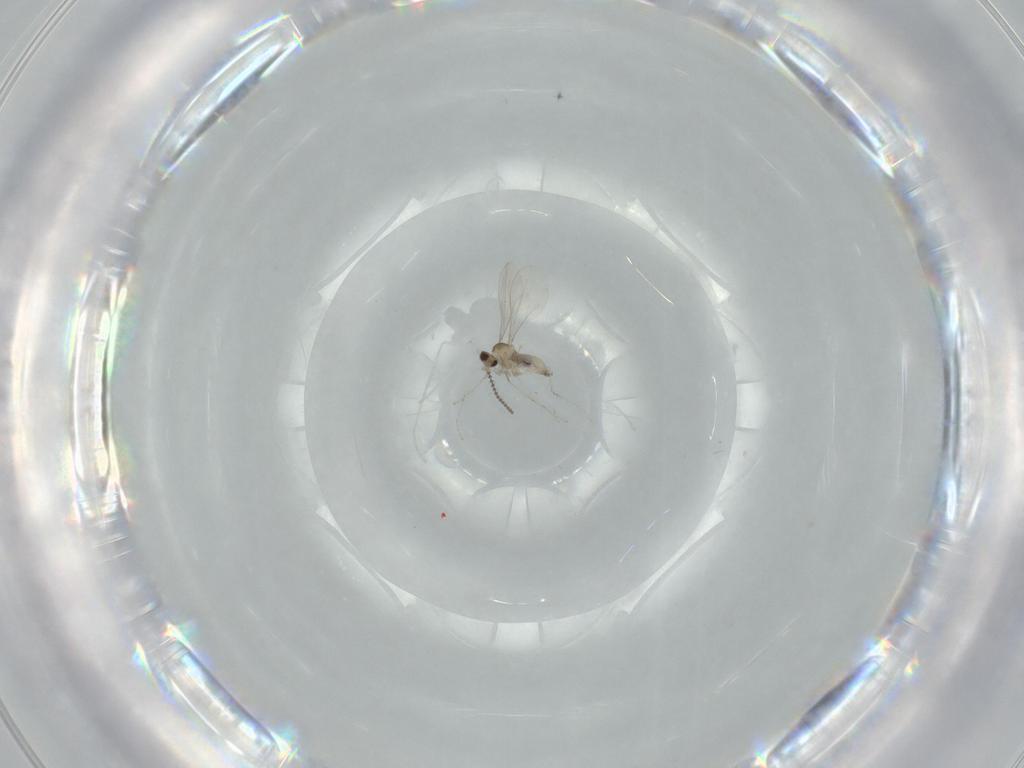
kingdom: Animalia
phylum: Arthropoda
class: Insecta
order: Diptera
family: Cecidomyiidae
